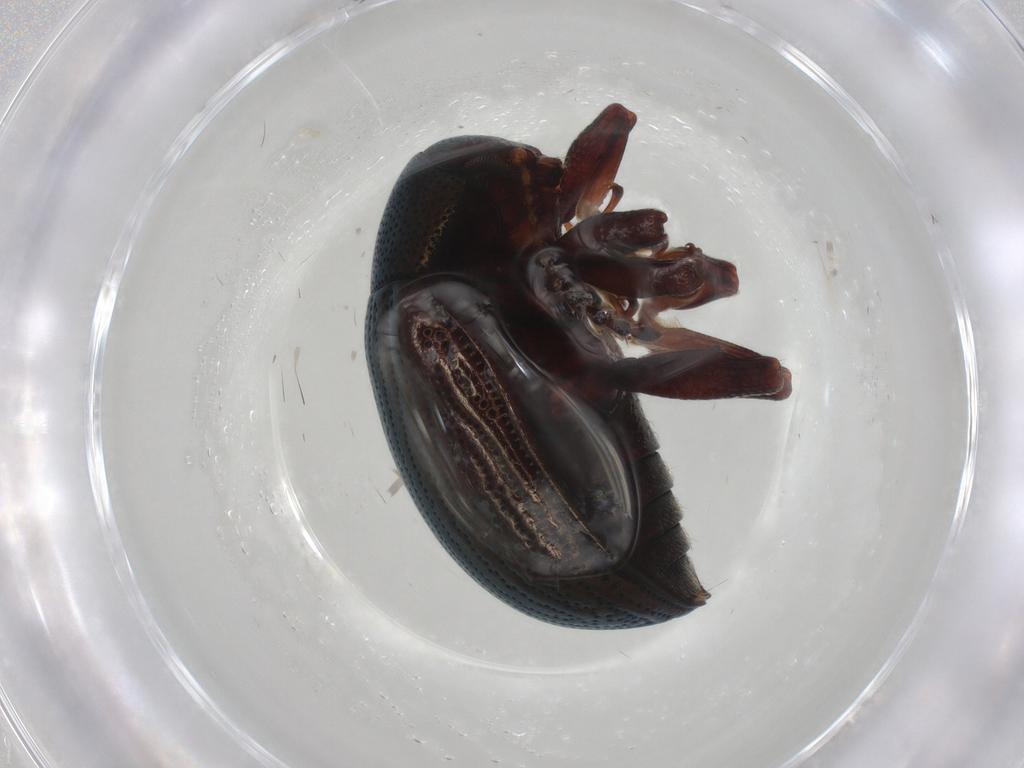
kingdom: Animalia
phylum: Arthropoda
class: Insecta
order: Coleoptera
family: Chrysomelidae
